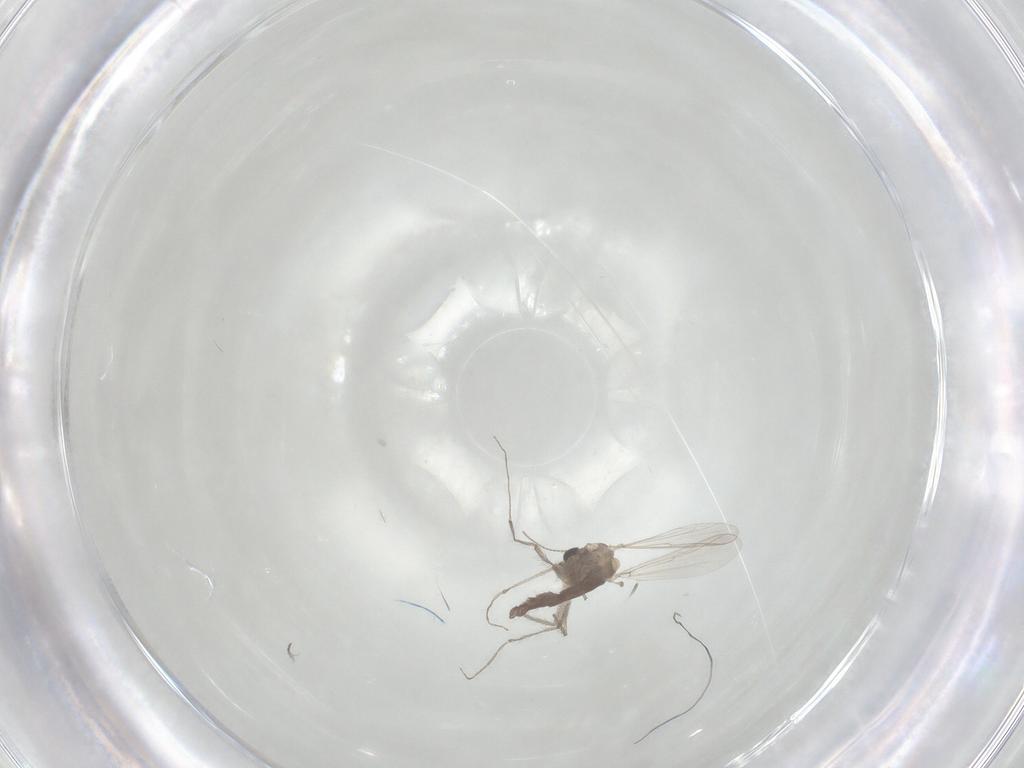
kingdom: Animalia
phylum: Arthropoda
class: Insecta
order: Diptera
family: Chironomidae
